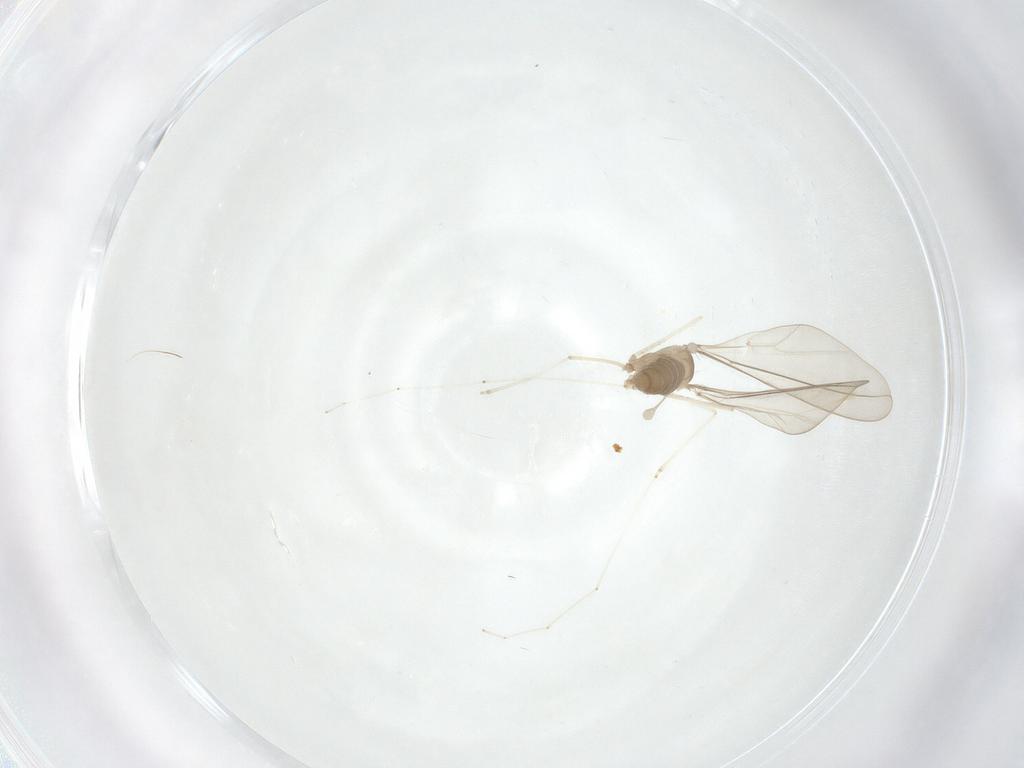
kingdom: Animalia
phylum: Arthropoda
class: Insecta
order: Diptera
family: Cecidomyiidae
